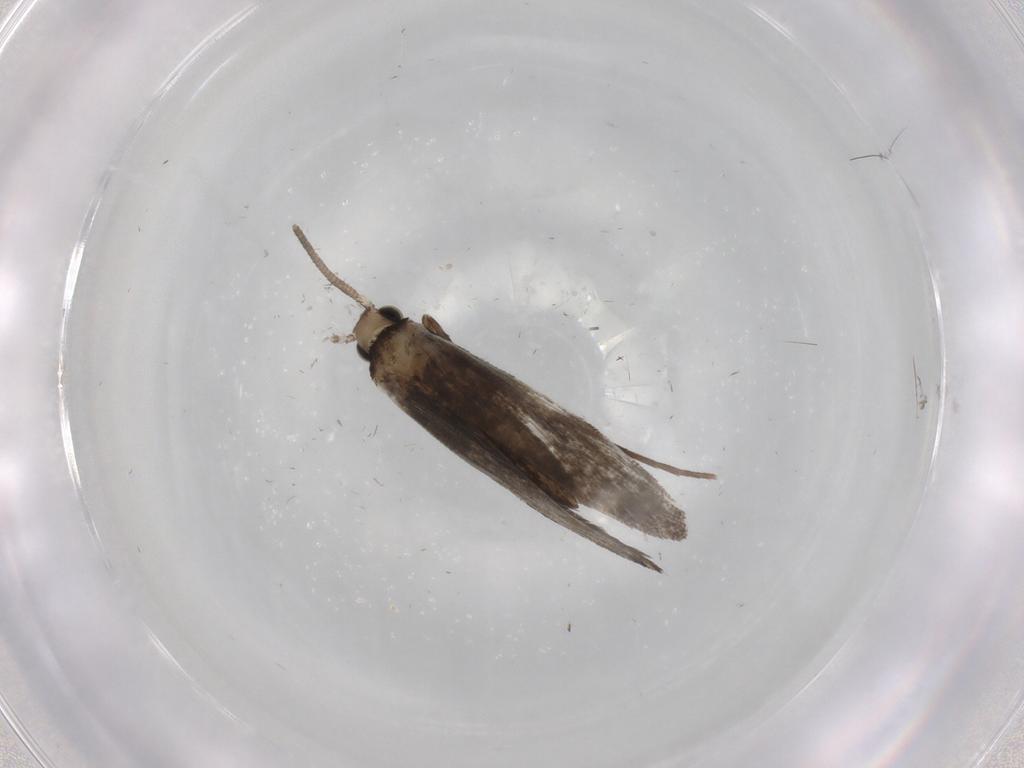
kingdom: Animalia
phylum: Arthropoda
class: Insecta
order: Lepidoptera
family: Nymphalidae
